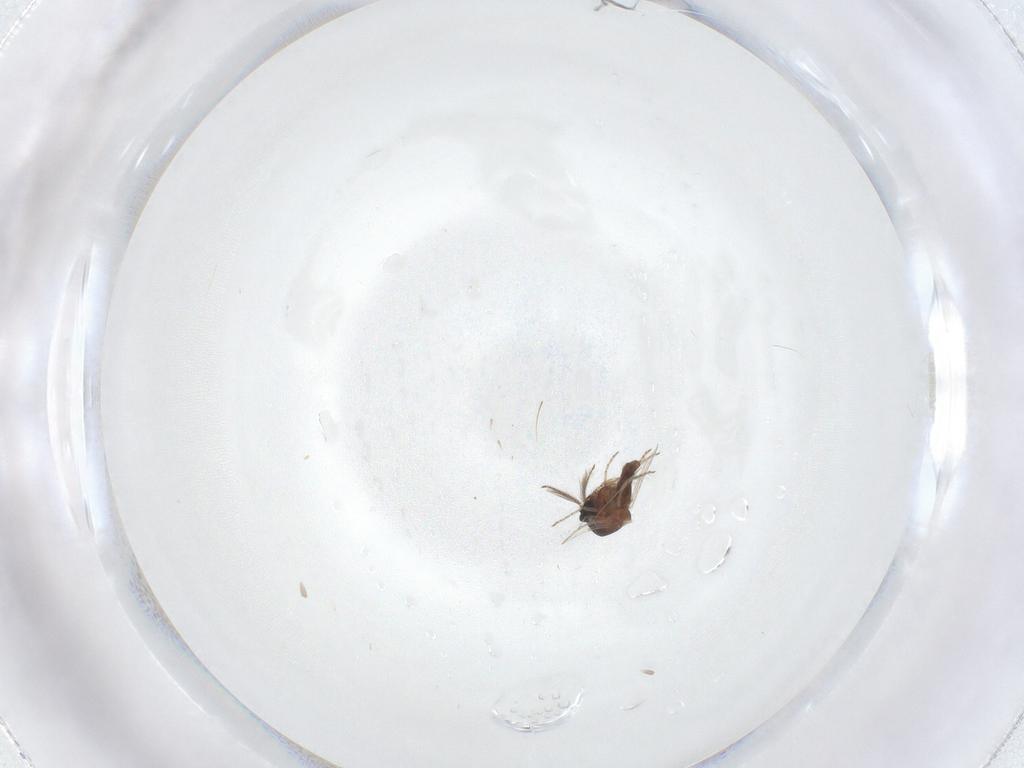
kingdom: Animalia
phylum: Arthropoda
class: Insecta
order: Diptera
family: Ceratopogonidae
